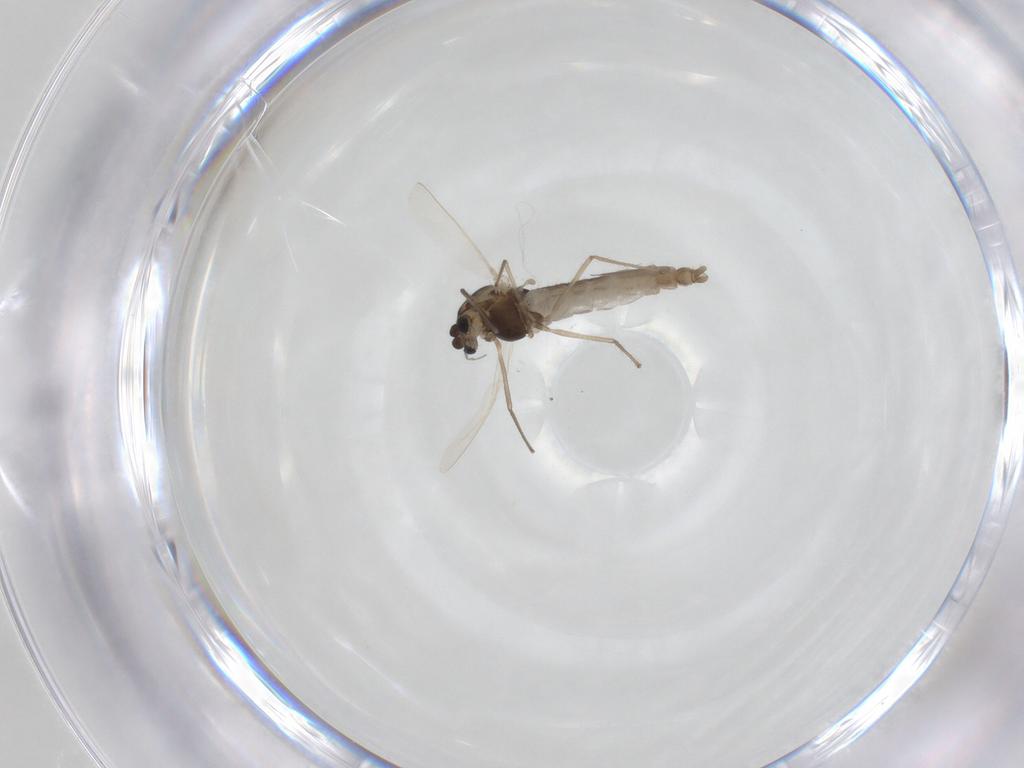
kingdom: Animalia
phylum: Arthropoda
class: Insecta
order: Diptera
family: Chironomidae
